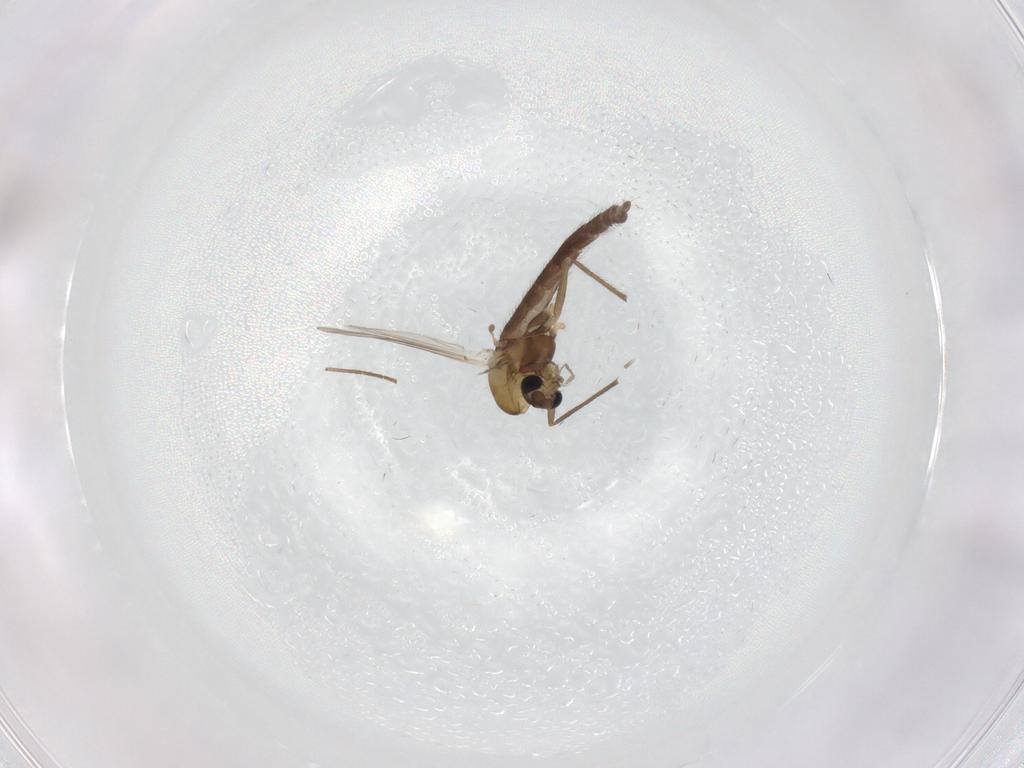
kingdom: Animalia
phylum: Arthropoda
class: Insecta
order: Diptera
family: Chironomidae
